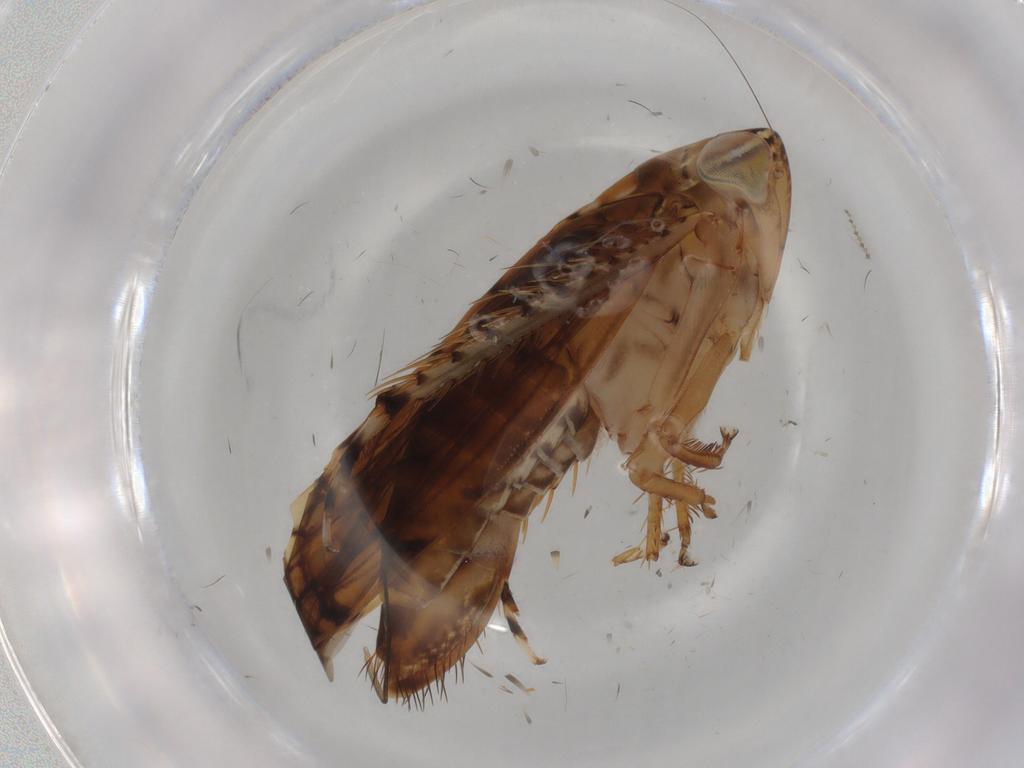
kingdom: Animalia
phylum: Arthropoda
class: Insecta
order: Hemiptera
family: Coccoidea_incertae_sedis
